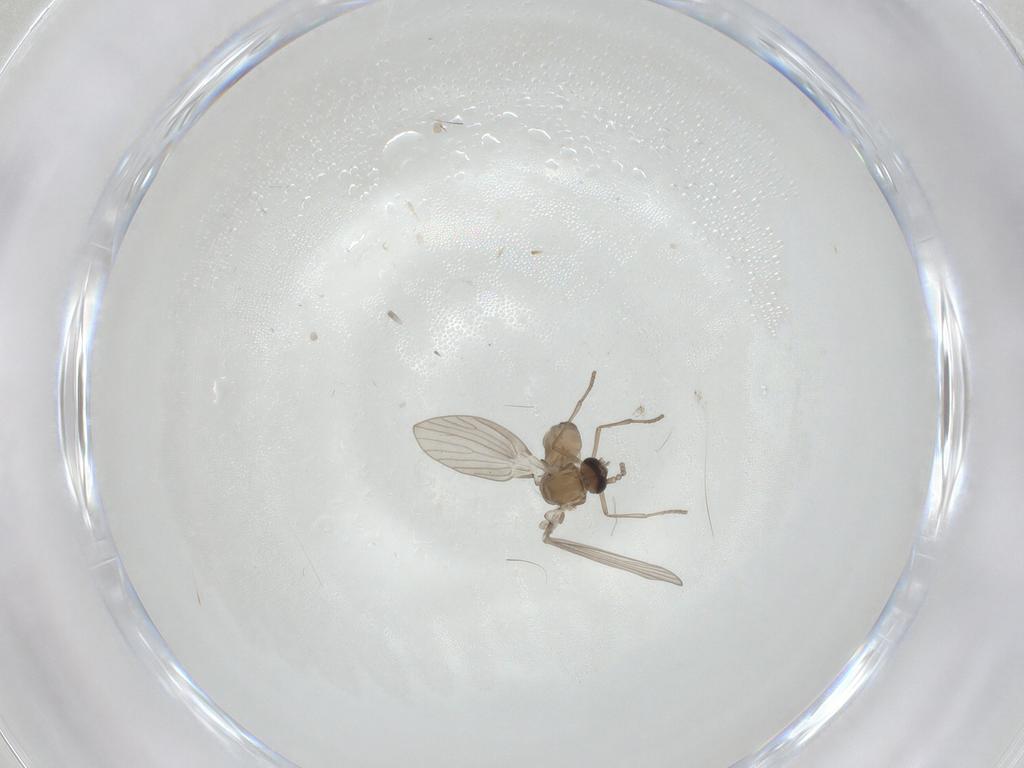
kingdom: Animalia
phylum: Arthropoda
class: Insecta
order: Diptera
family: Psychodidae
